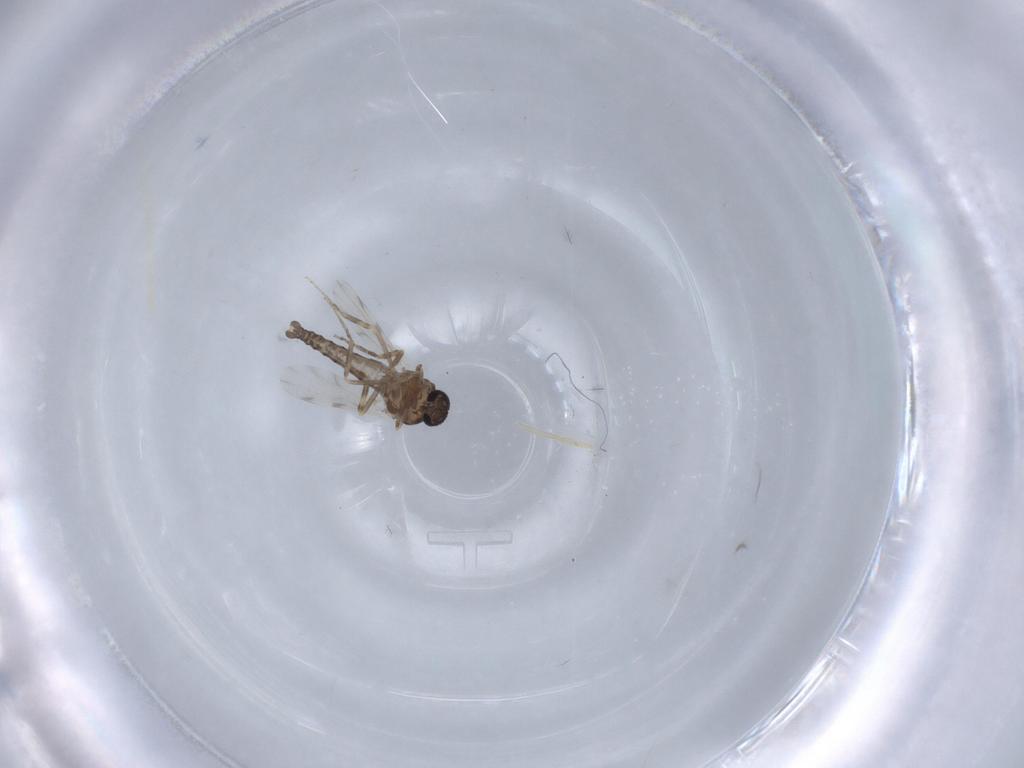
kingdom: Animalia
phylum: Arthropoda
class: Insecta
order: Diptera
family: Ceratopogonidae
